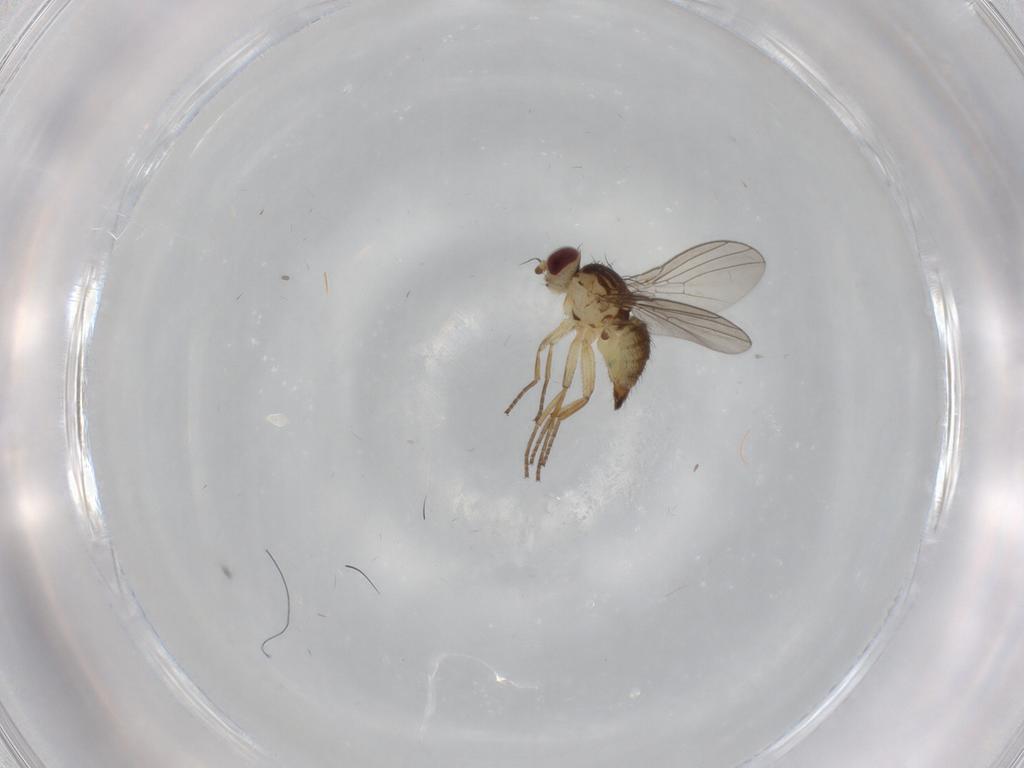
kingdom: Animalia
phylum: Arthropoda
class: Insecta
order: Diptera
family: Agromyzidae
